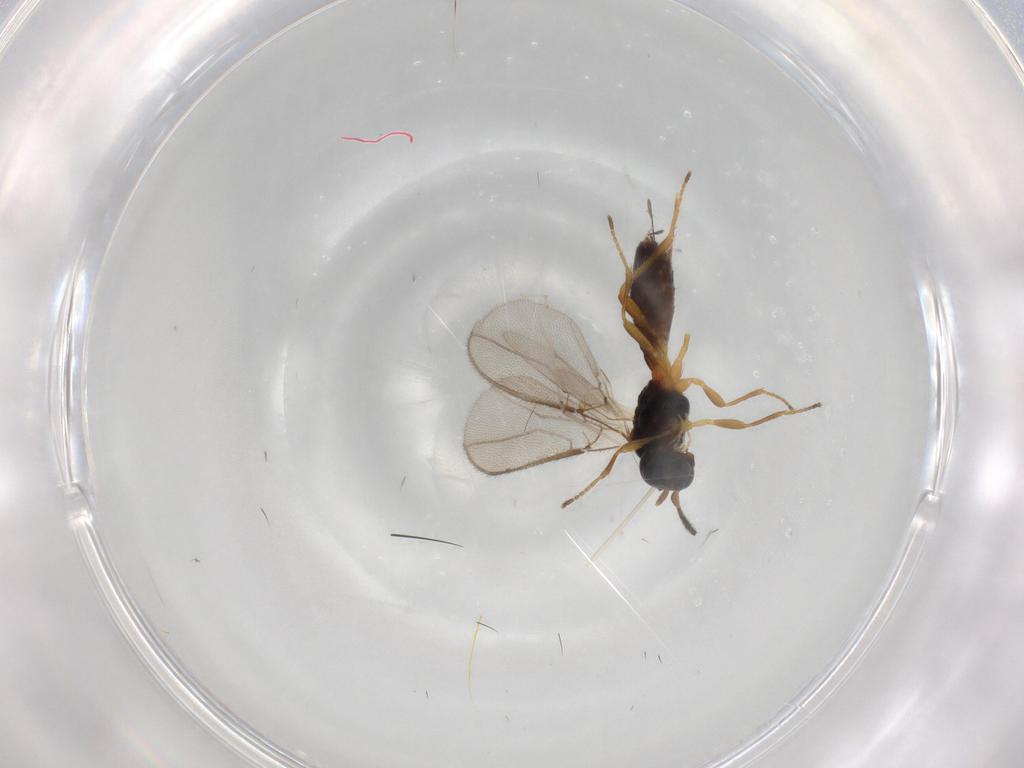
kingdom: Animalia
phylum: Arthropoda
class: Insecta
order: Hymenoptera
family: Braconidae
